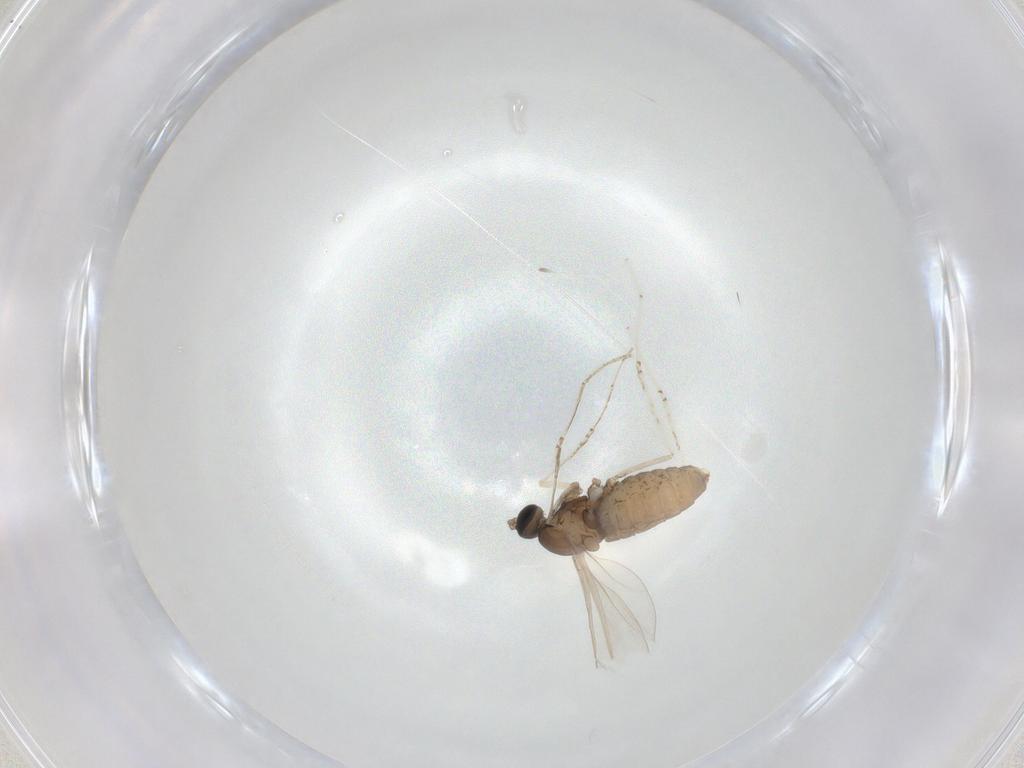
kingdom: Animalia
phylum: Arthropoda
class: Insecta
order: Diptera
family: Cecidomyiidae
